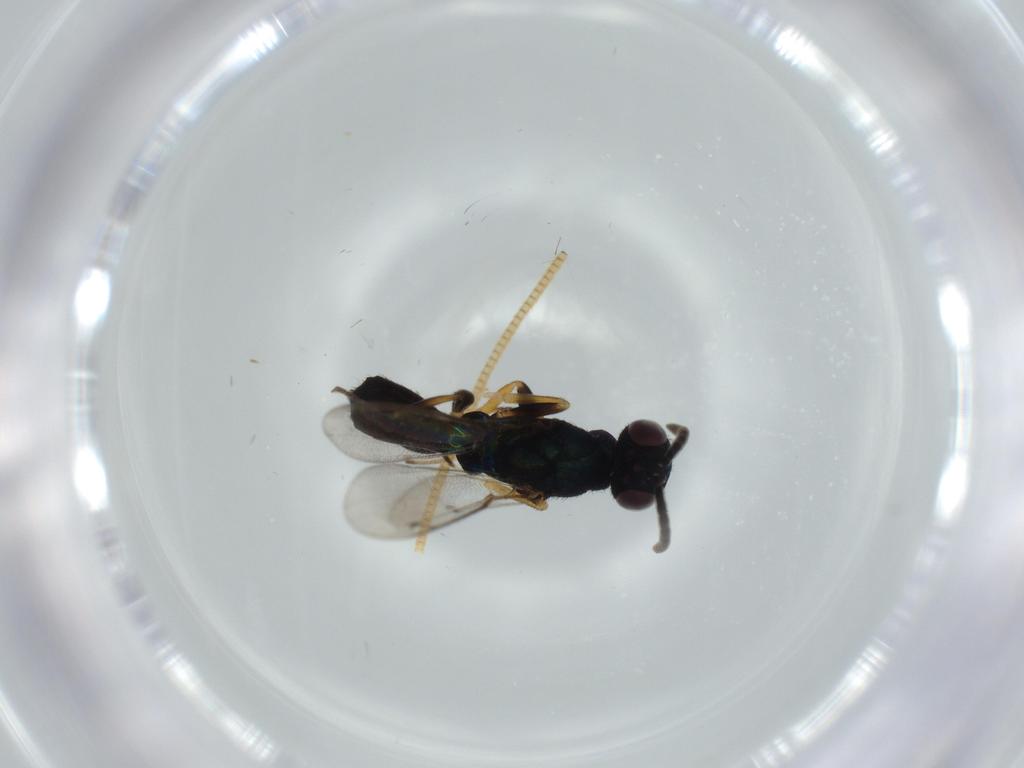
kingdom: Animalia
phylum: Arthropoda
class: Insecta
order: Hymenoptera
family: Eupelmidae
